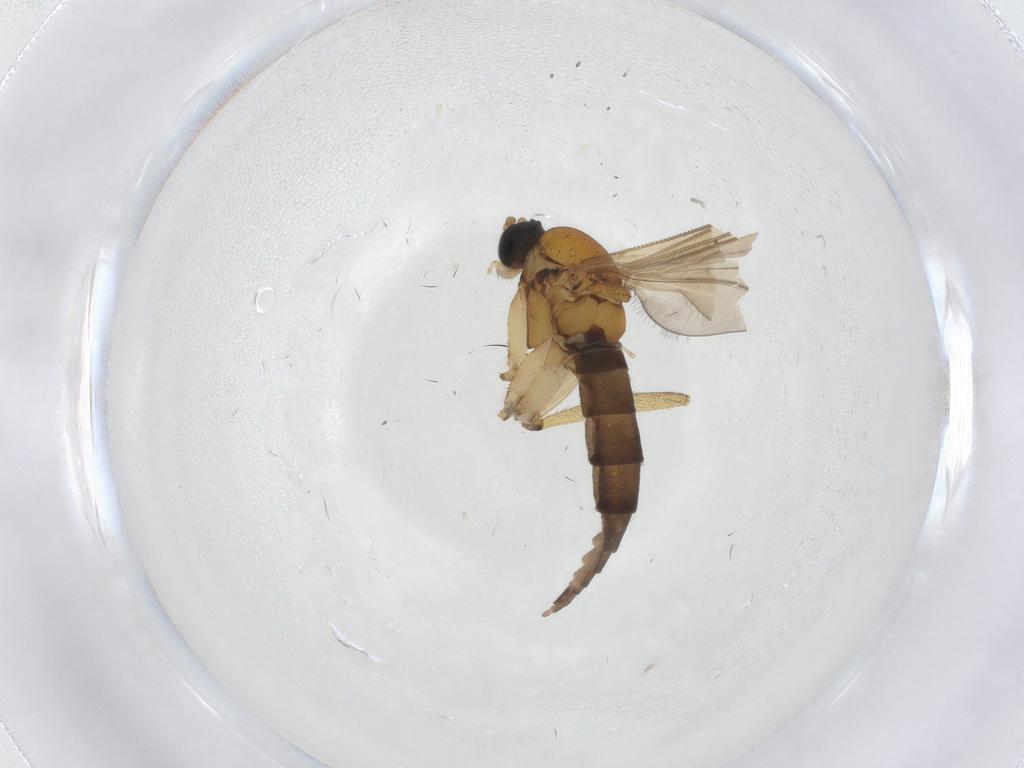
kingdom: Animalia
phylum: Arthropoda
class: Insecta
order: Diptera
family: Sciaridae
